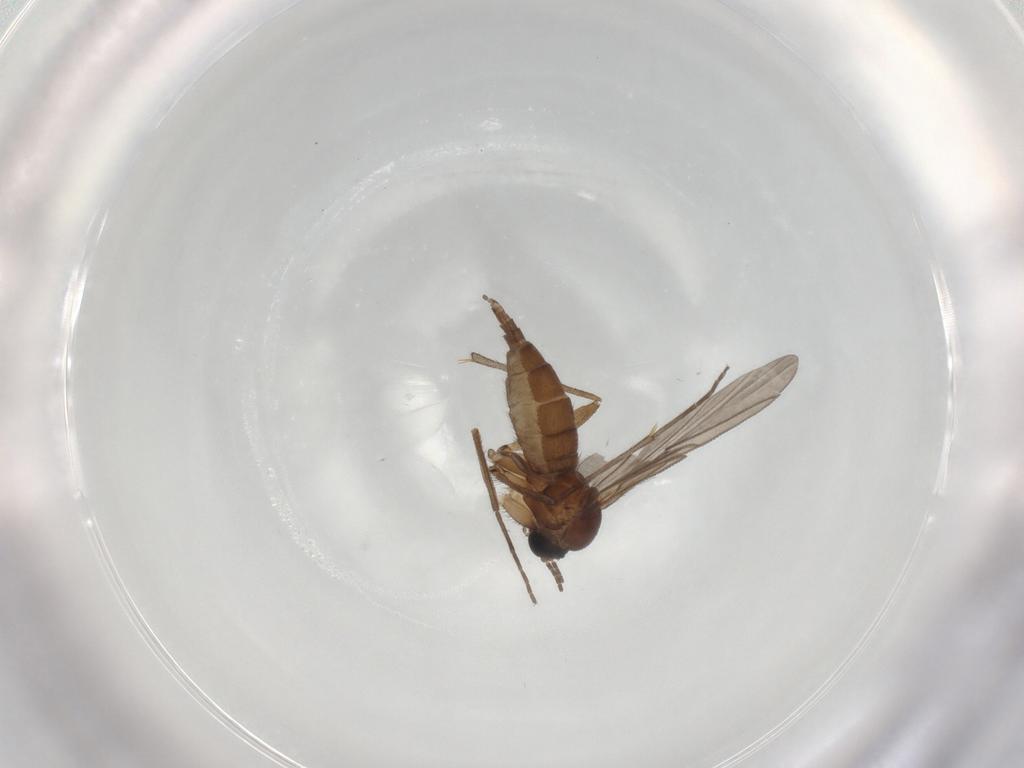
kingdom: Animalia
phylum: Arthropoda
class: Insecta
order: Diptera
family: Sciaridae
